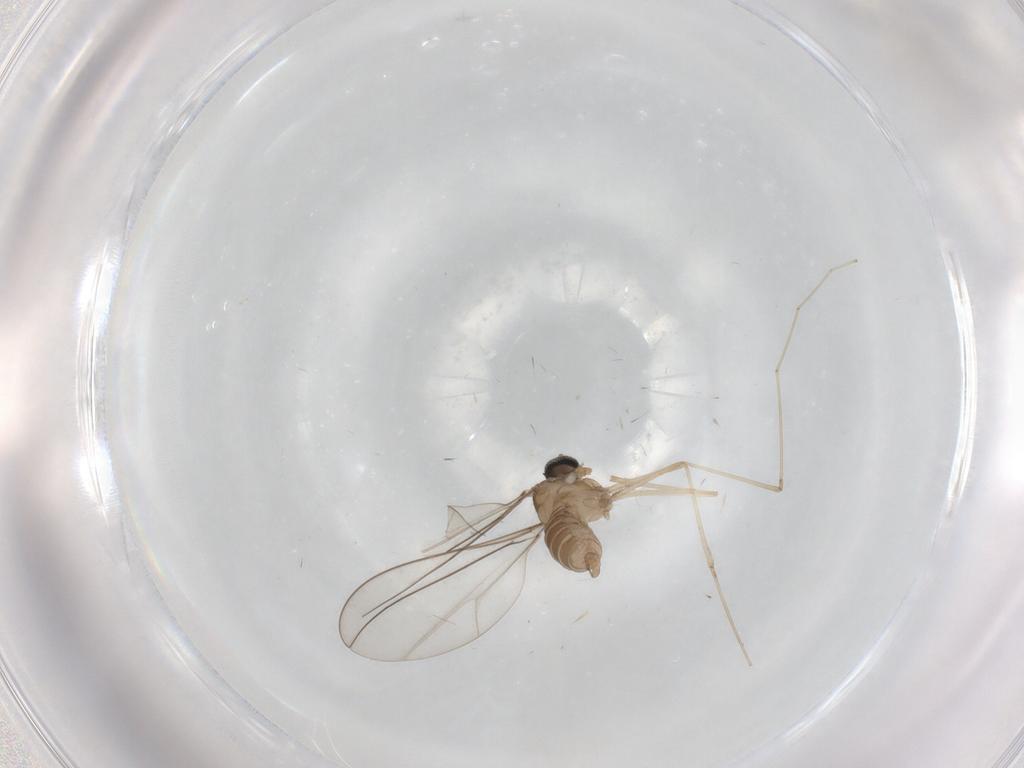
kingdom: Animalia
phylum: Arthropoda
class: Insecta
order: Diptera
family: Cecidomyiidae
